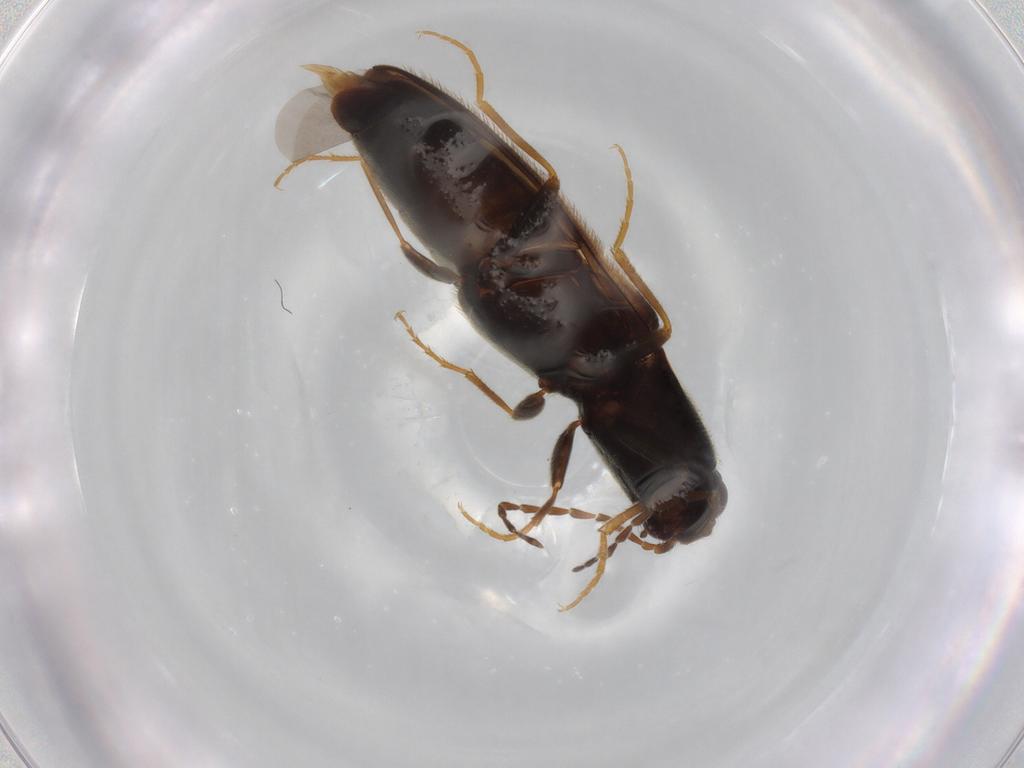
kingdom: Animalia
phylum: Arthropoda
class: Insecta
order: Coleoptera
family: Elateridae
